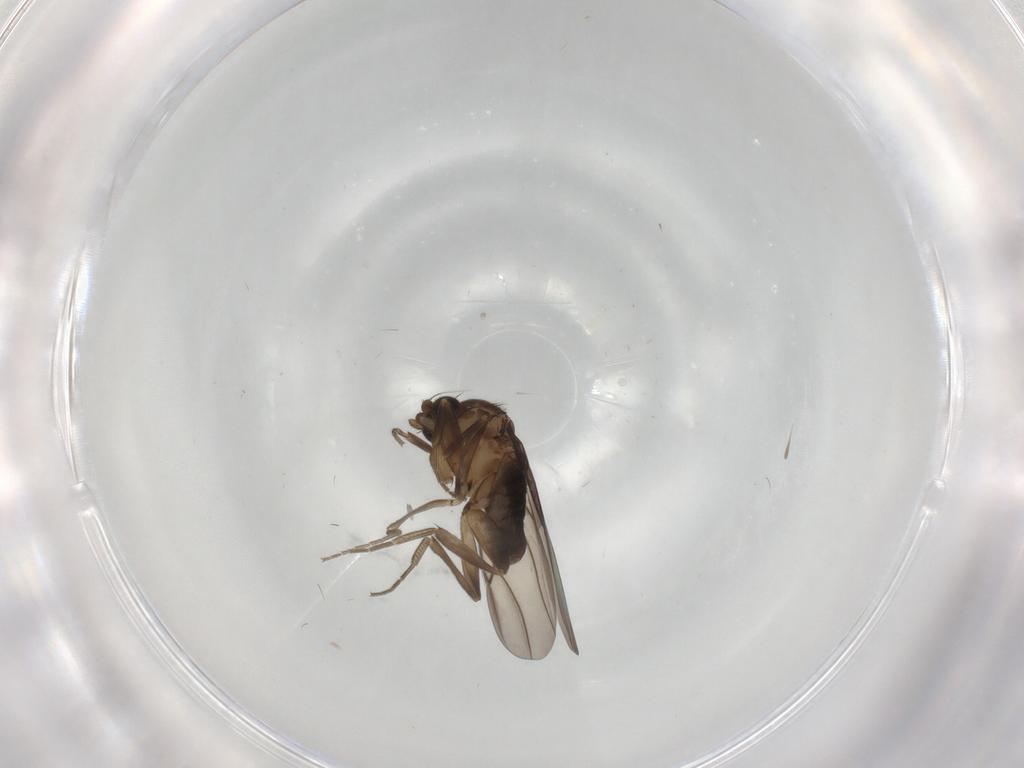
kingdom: Animalia
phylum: Arthropoda
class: Insecta
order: Diptera
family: Phoridae
